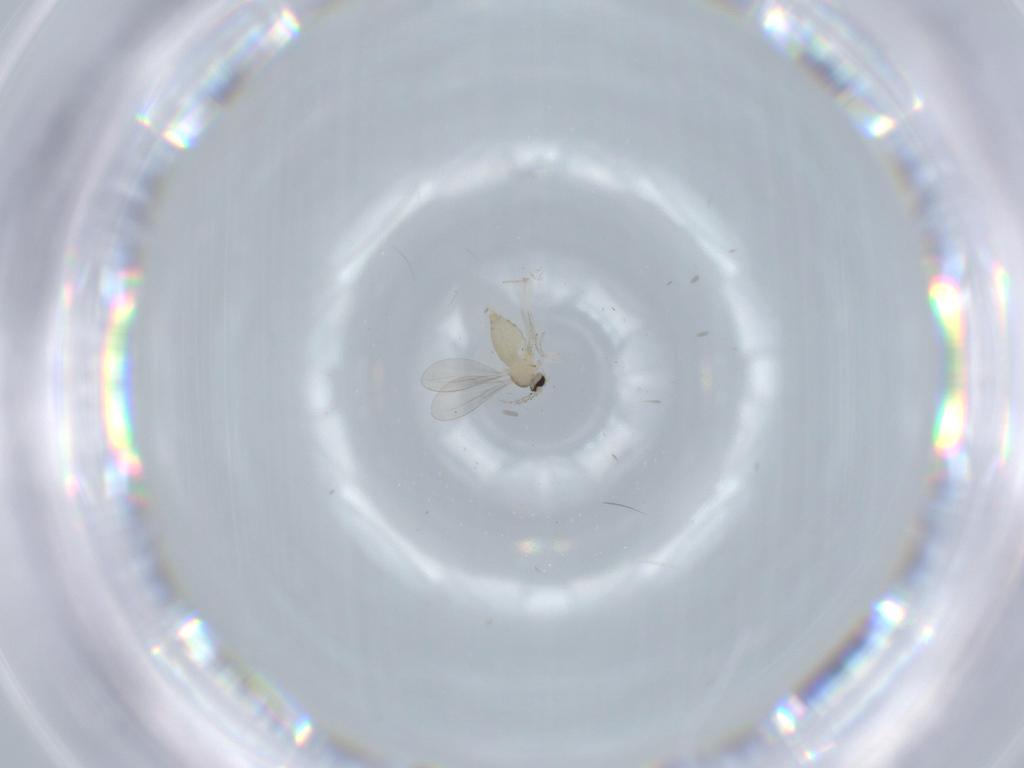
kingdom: Animalia
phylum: Arthropoda
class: Insecta
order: Diptera
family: Cecidomyiidae
